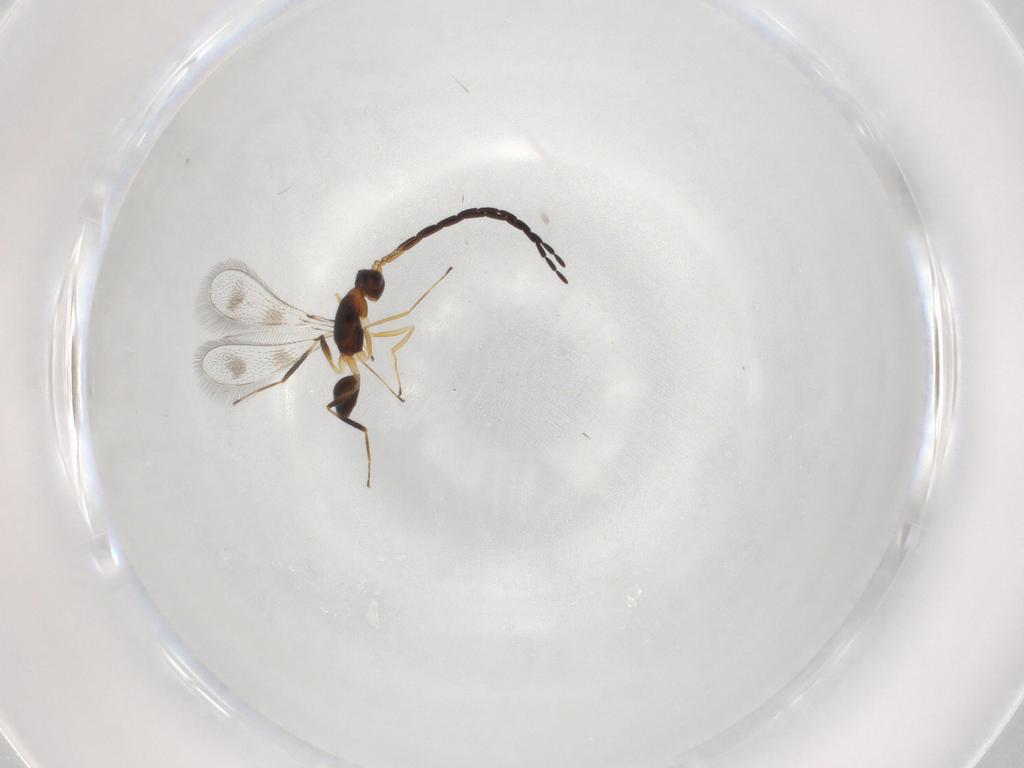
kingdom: Animalia
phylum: Arthropoda
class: Insecta
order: Hymenoptera
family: Mymaridae
